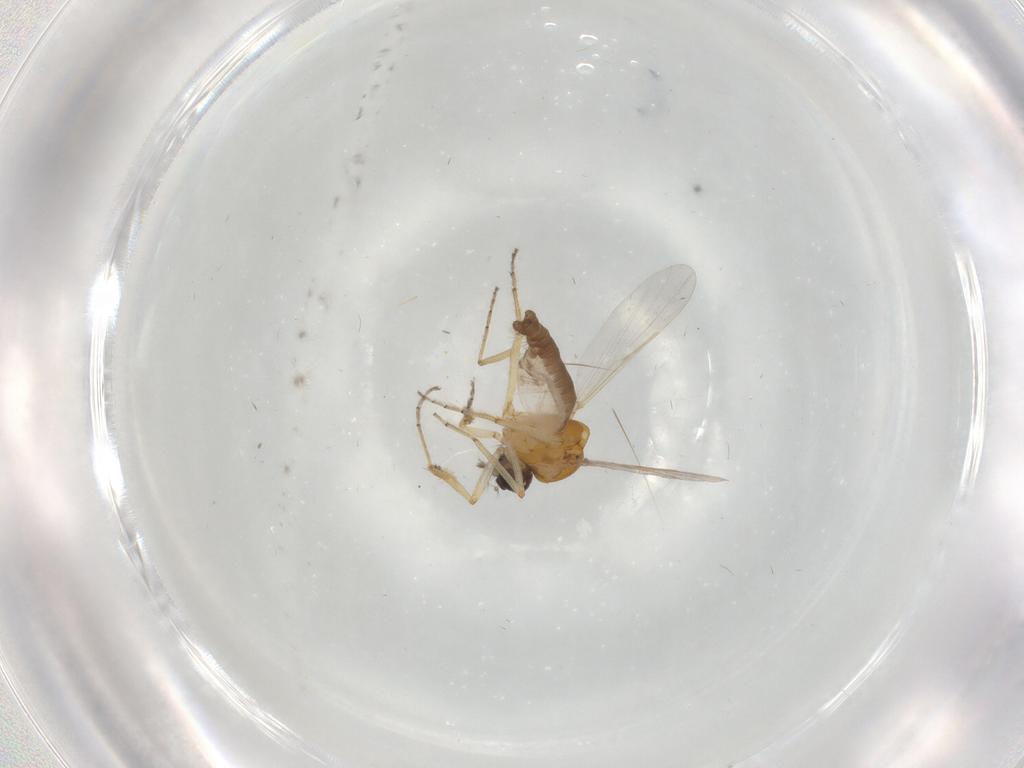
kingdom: Animalia
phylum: Arthropoda
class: Insecta
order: Diptera
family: Ceratopogonidae
